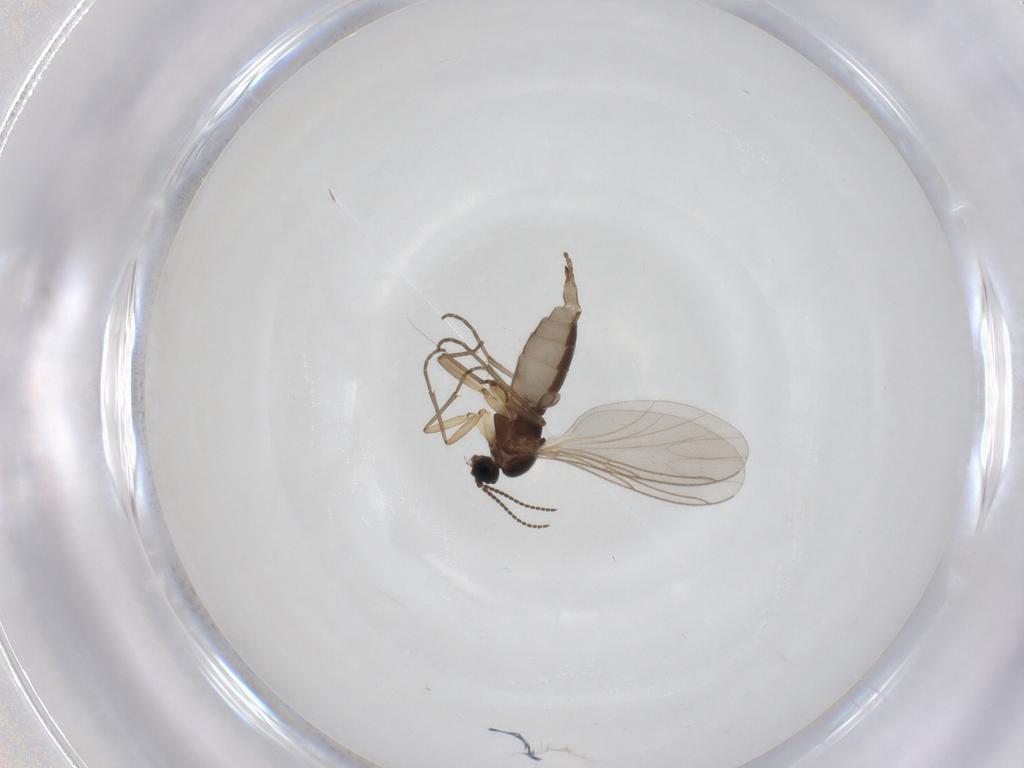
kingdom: Animalia
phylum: Arthropoda
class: Insecta
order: Diptera
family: Sciaridae
